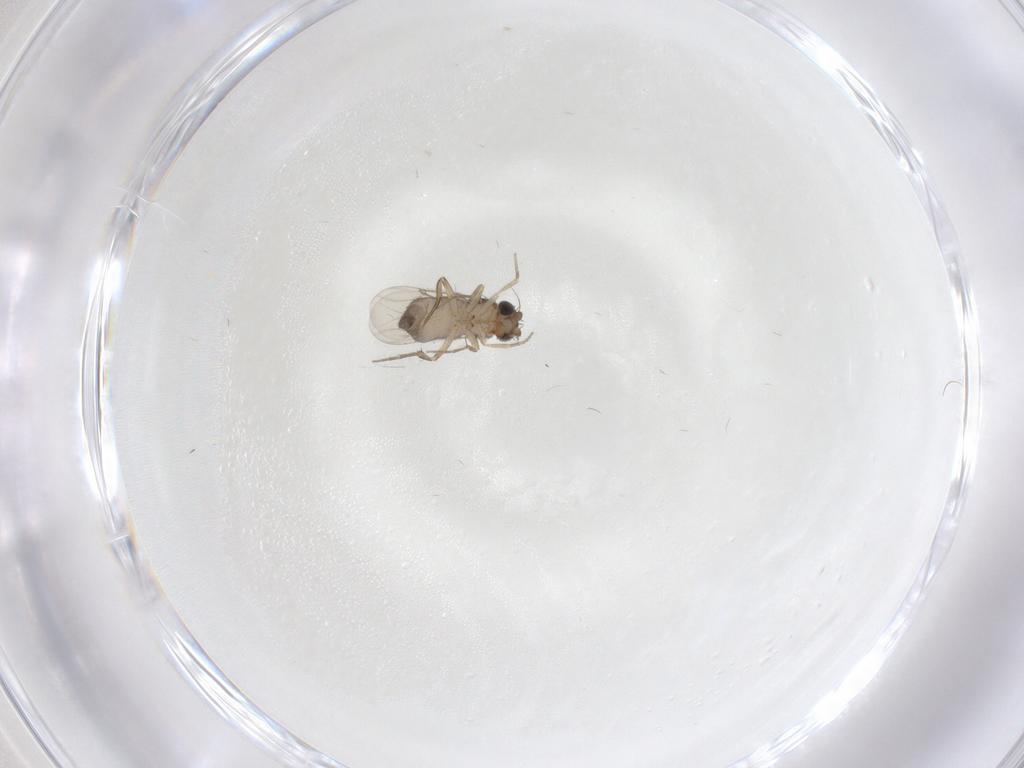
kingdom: Animalia
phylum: Arthropoda
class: Insecta
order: Diptera
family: Phoridae
